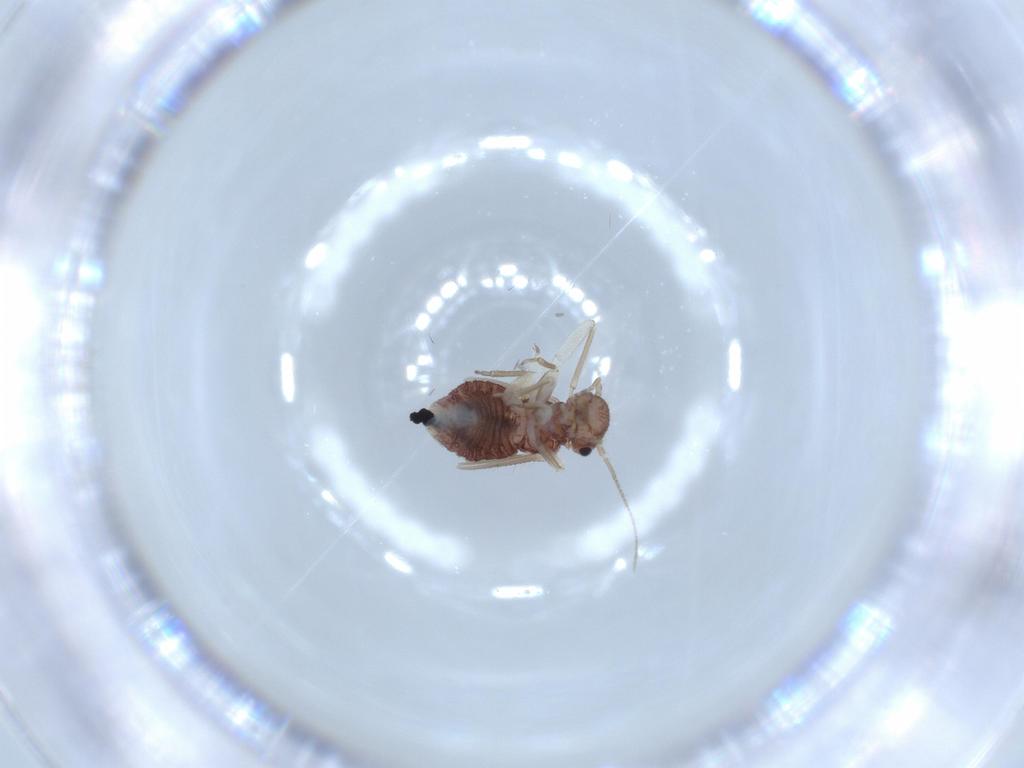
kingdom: Animalia
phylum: Arthropoda
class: Insecta
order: Psocodea
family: Archipsocidae
